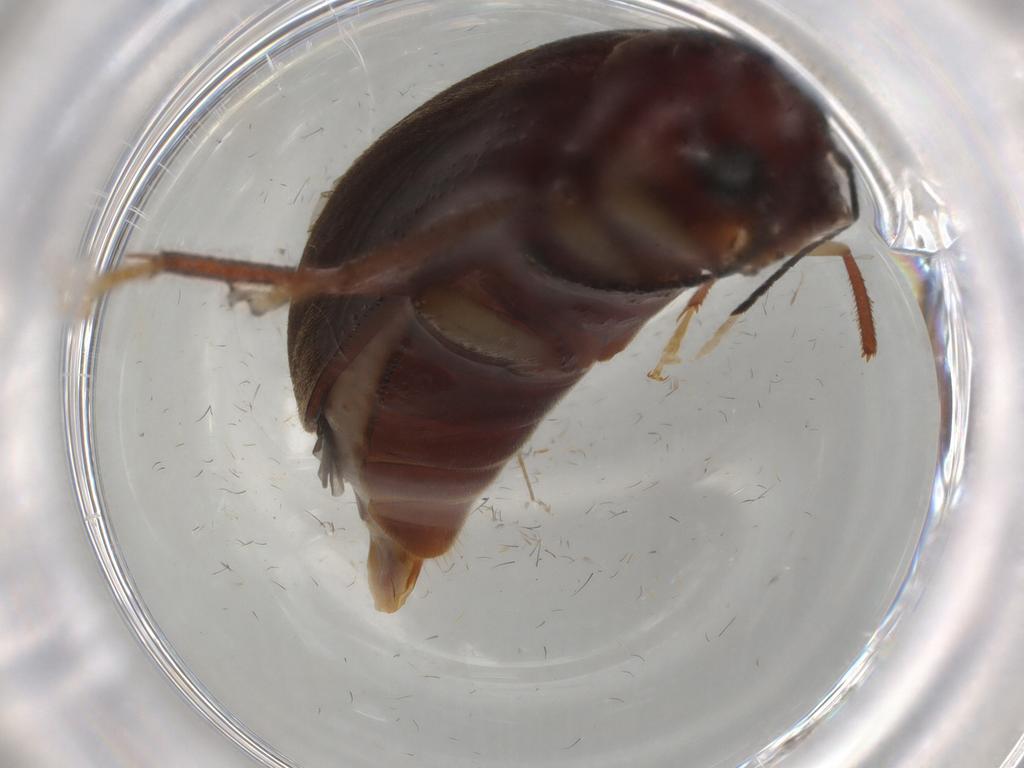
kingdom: Animalia
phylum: Arthropoda
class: Insecta
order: Coleoptera
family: Ptilodactylidae
